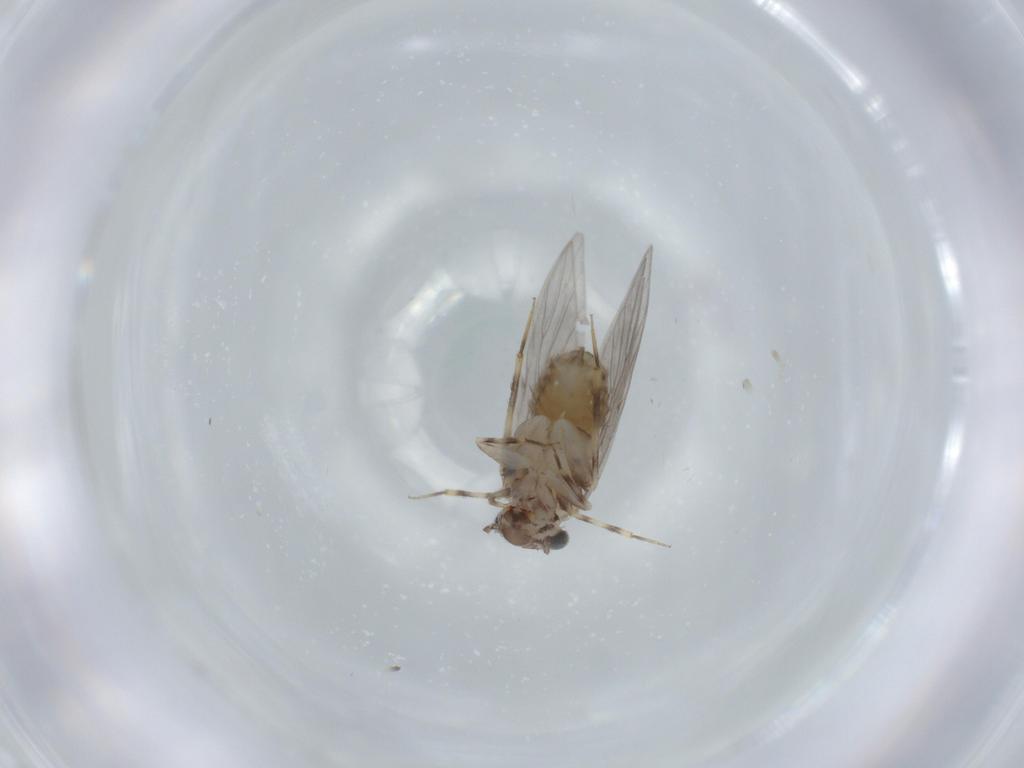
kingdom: Animalia
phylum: Arthropoda
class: Insecta
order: Psocodea
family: Lepidopsocidae
